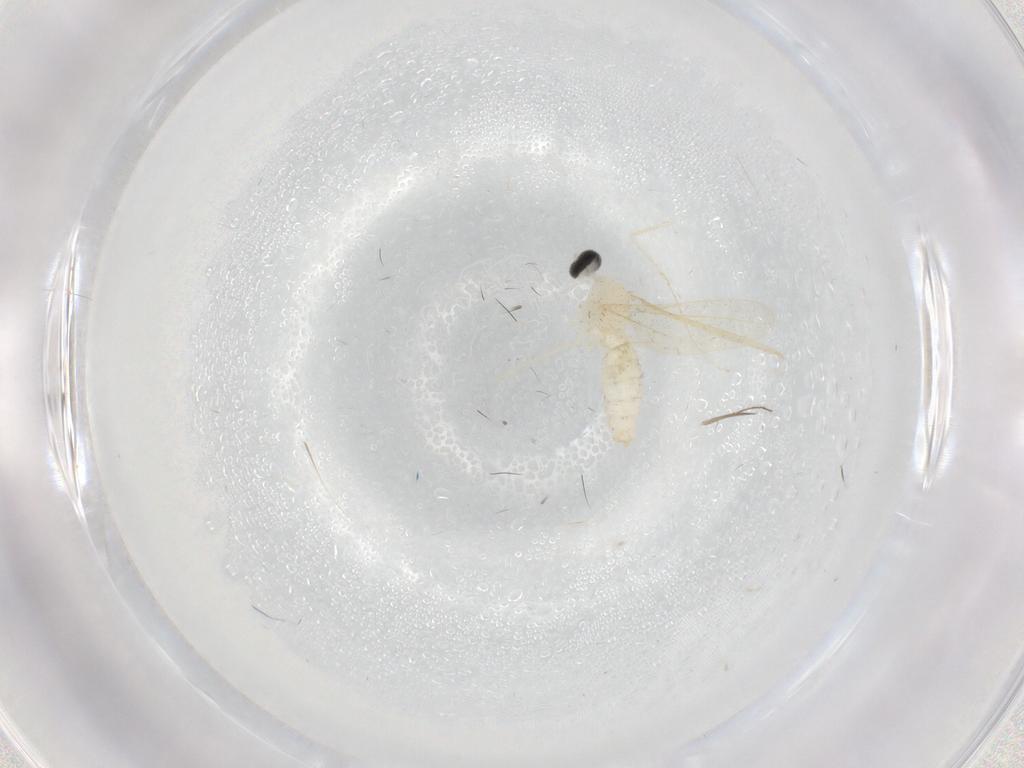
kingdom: Animalia
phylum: Arthropoda
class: Insecta
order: Diptera
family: Cecidomyiidae
